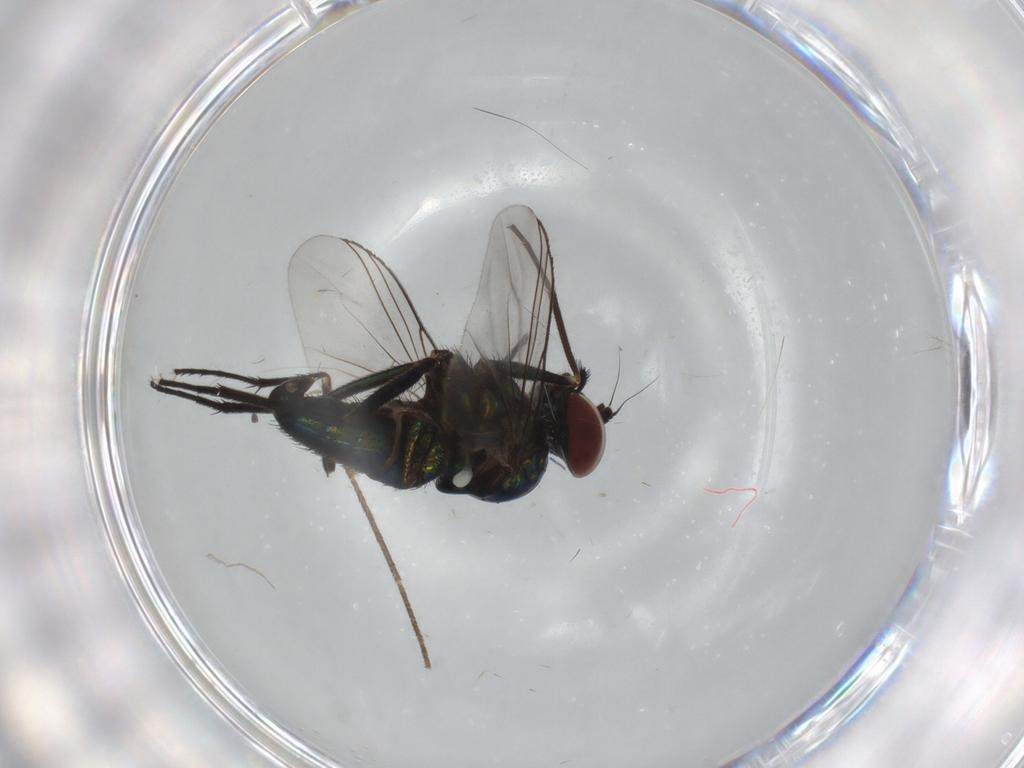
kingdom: Animalia
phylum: Arthropoda
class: Insecta
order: Diptera
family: Dolichopodidae
